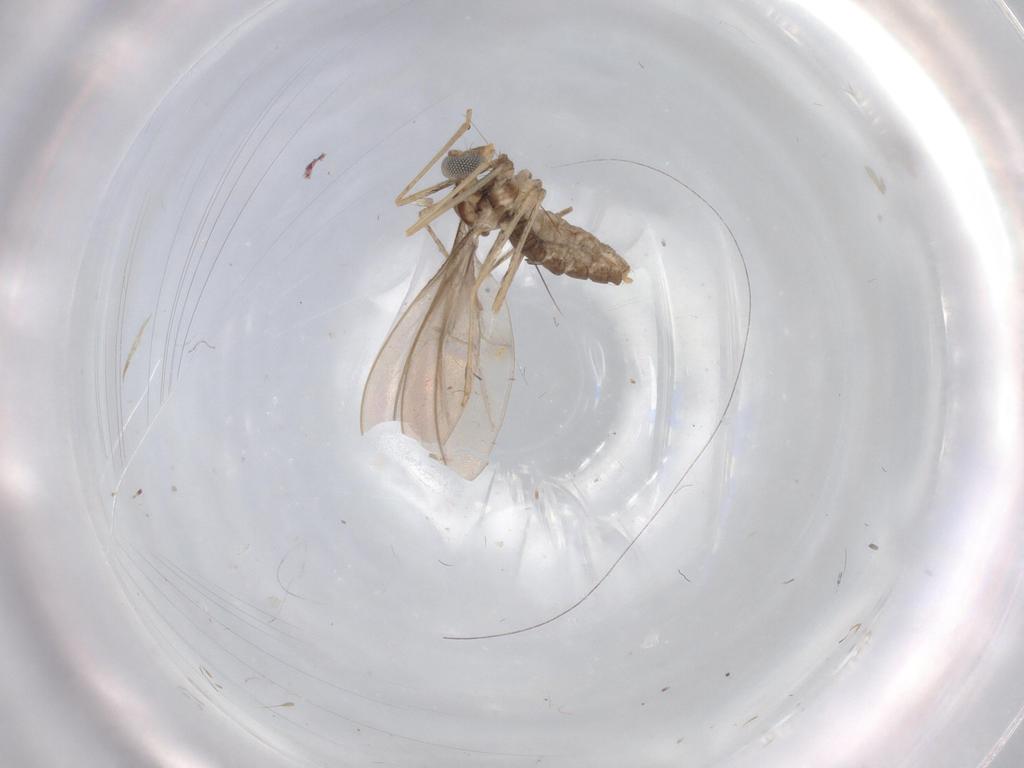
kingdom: Animalia
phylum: Arthropoda
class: Insecta
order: Diptera
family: Cecidomyiidae
